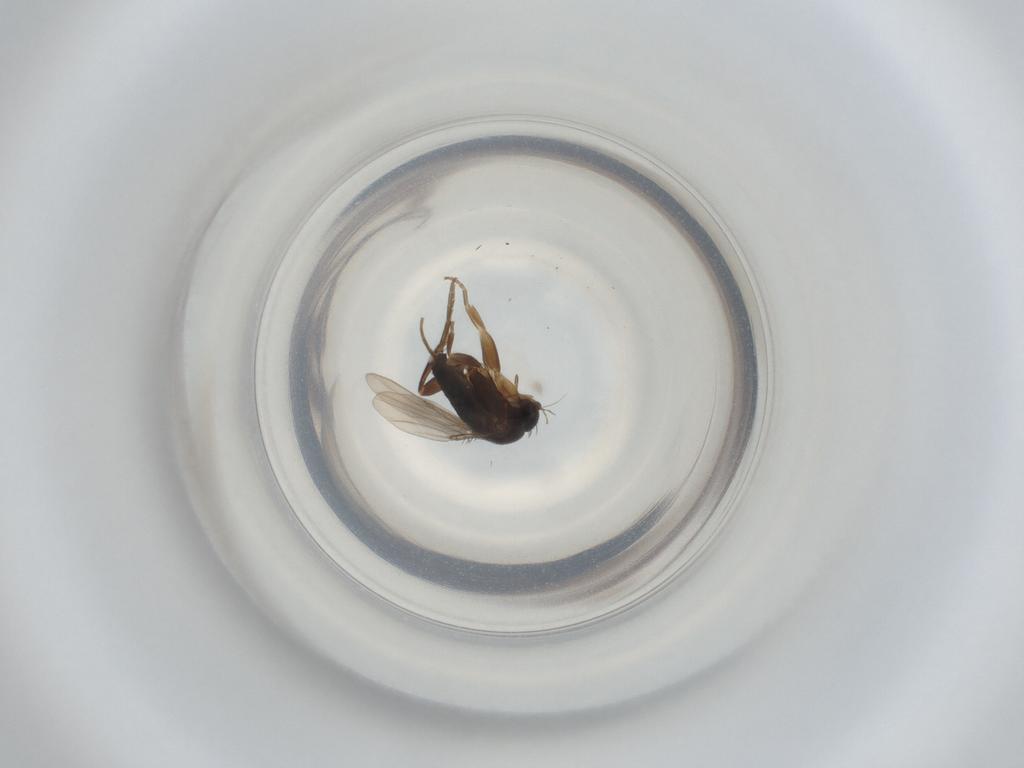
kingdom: Animalia
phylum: Arthropoda
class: Insecta
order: Diptera
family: Phoridae
